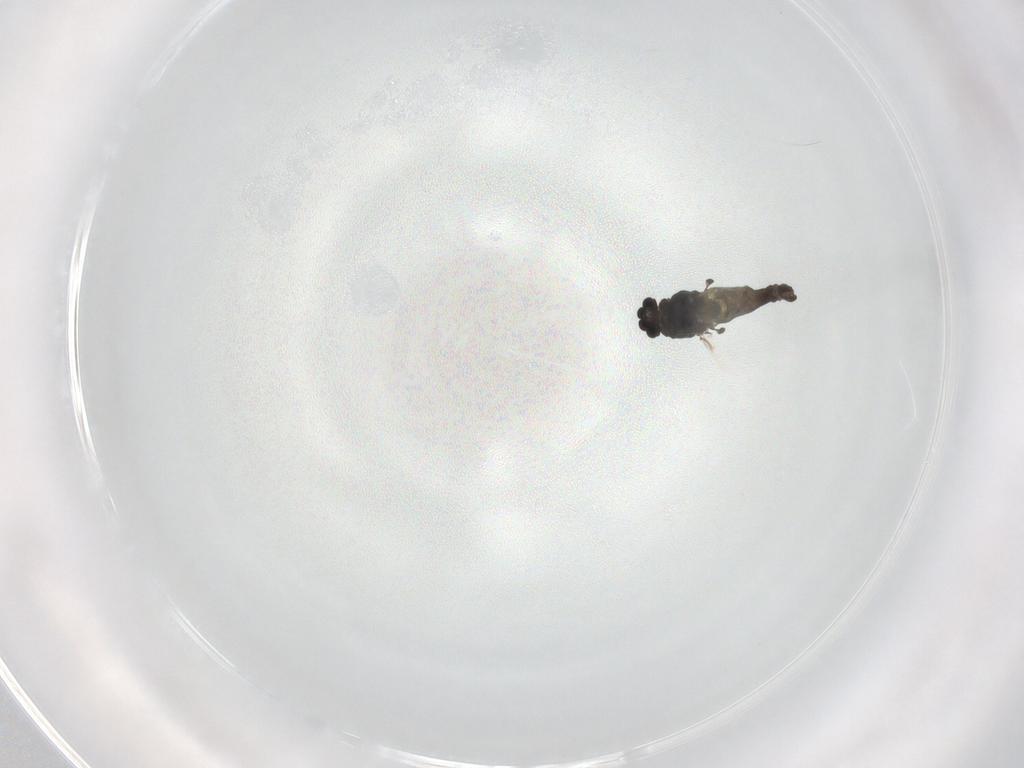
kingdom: Animalia
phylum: Arthropoda
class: Insecta
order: Diptera
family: Chironomidae
